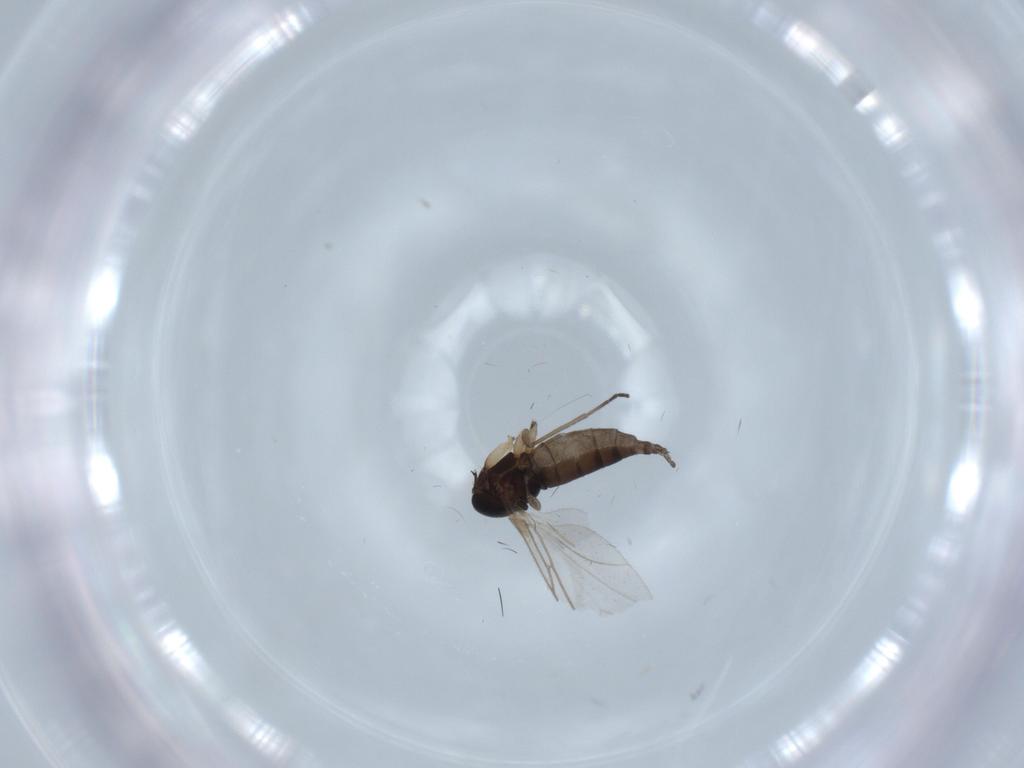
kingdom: Animalia
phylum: Arthropoda
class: Insecta
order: Diptera
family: Sciaridae
